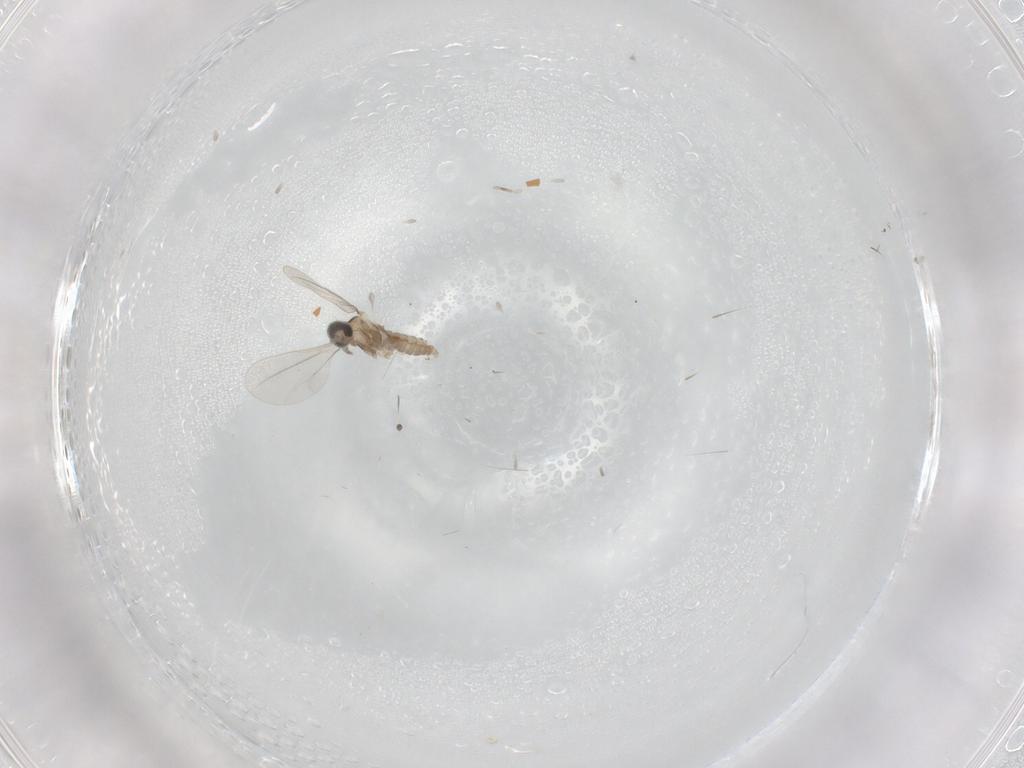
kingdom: Animalia
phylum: Arthropoda
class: Insecta
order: Diptera
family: Cecidomyiidae
